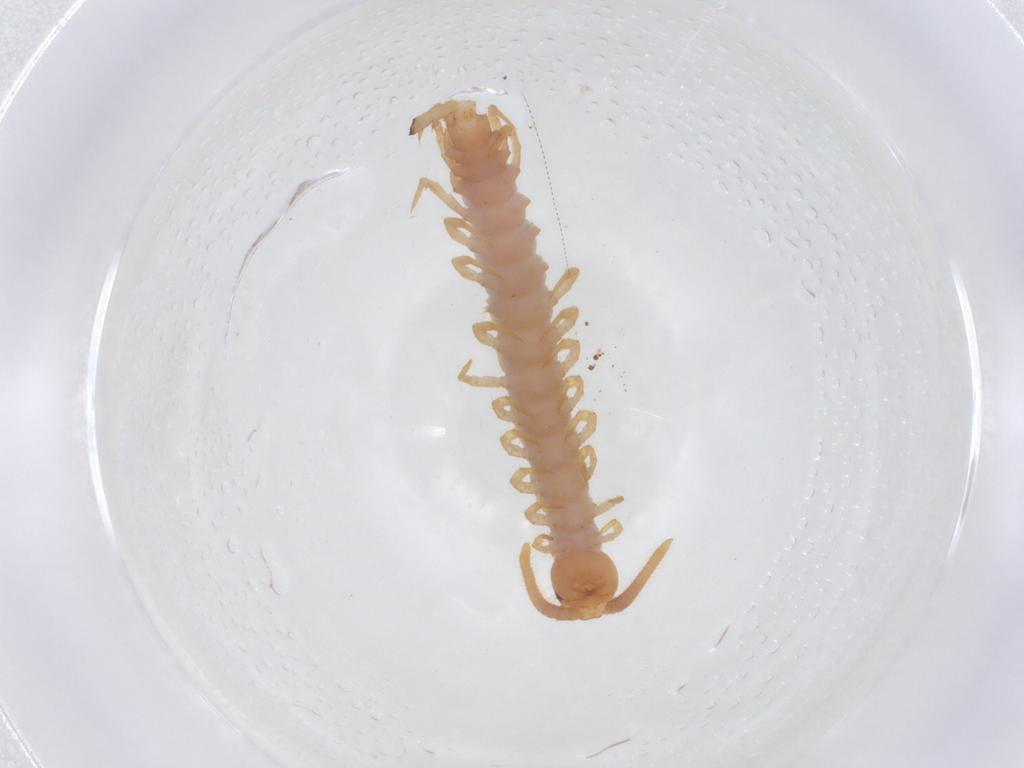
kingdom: Animalia
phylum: Arthropoda
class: Chilopoda
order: Lithobiomorpha
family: Lithobiidae
